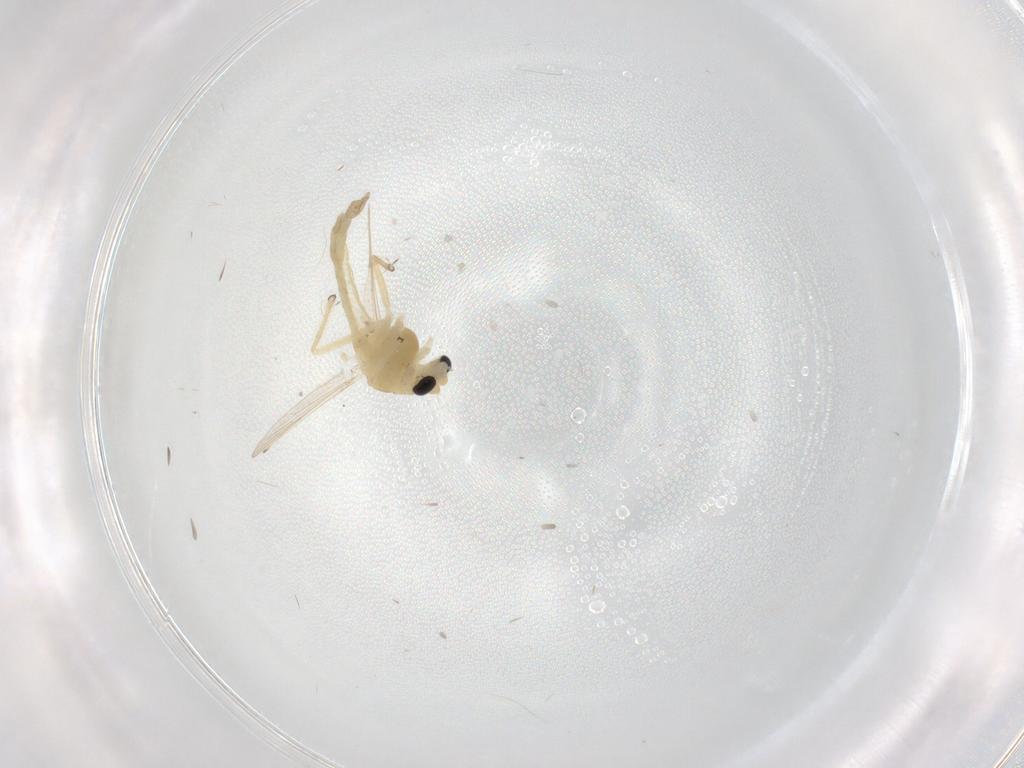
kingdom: Animalia
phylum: Arthropoda
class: Insecta
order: Diptera
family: Chironomidae
